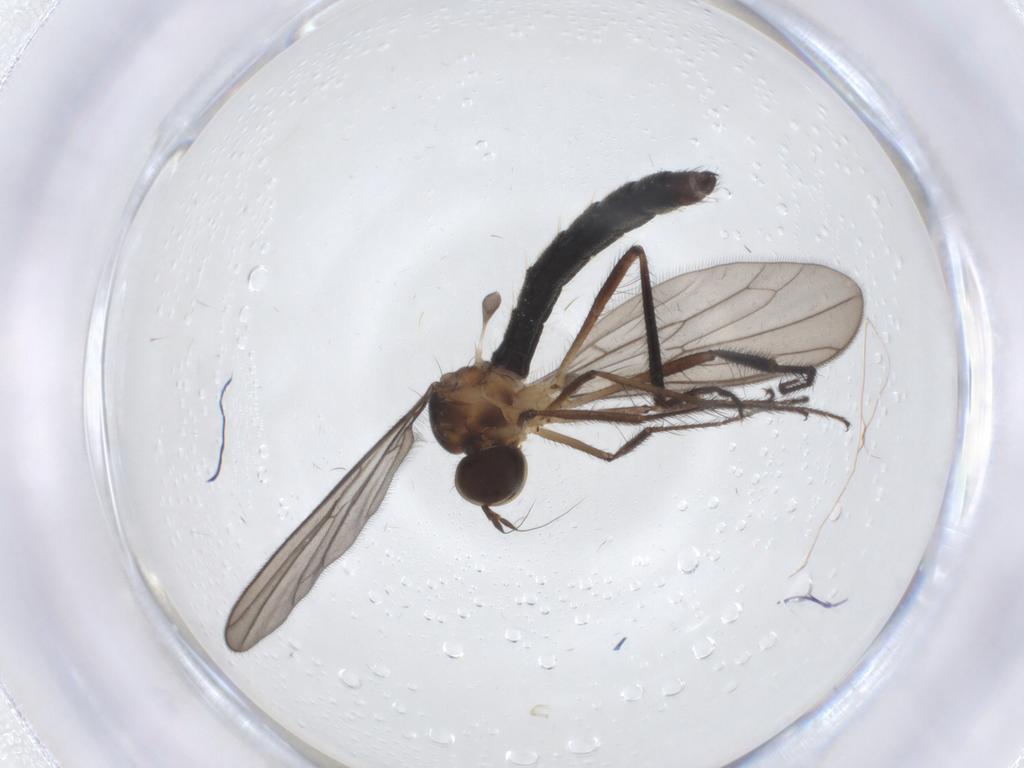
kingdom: Animalia
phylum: Arthropoda
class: Insecta
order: Diptera
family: Hybotidae
